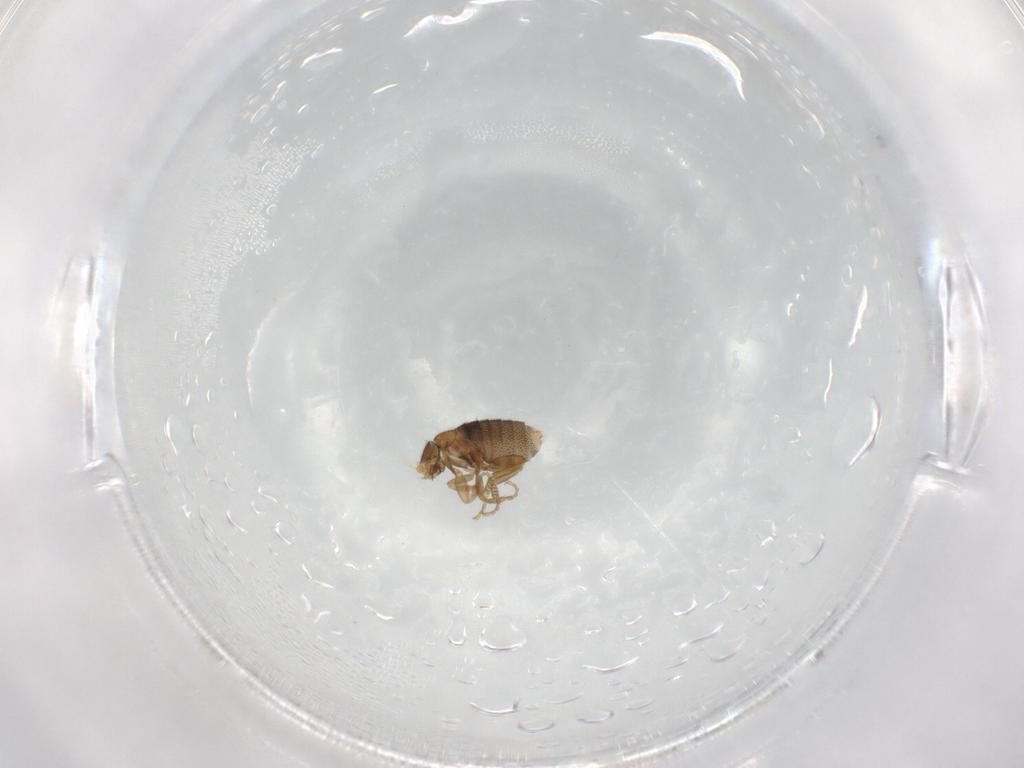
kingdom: Animalia
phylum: Arthropoda
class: Insecta
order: Diptera
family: Phoridae
